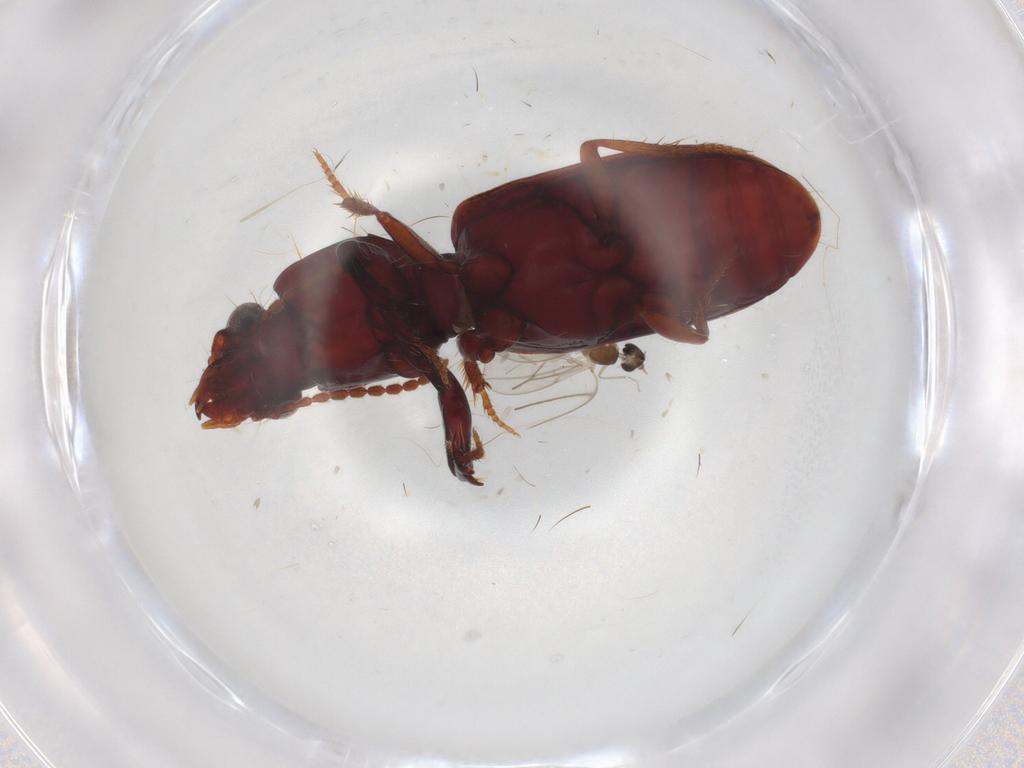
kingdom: Animalia
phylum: Arthropoda
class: Insecta
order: Diptera
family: Cecidomyiidae
